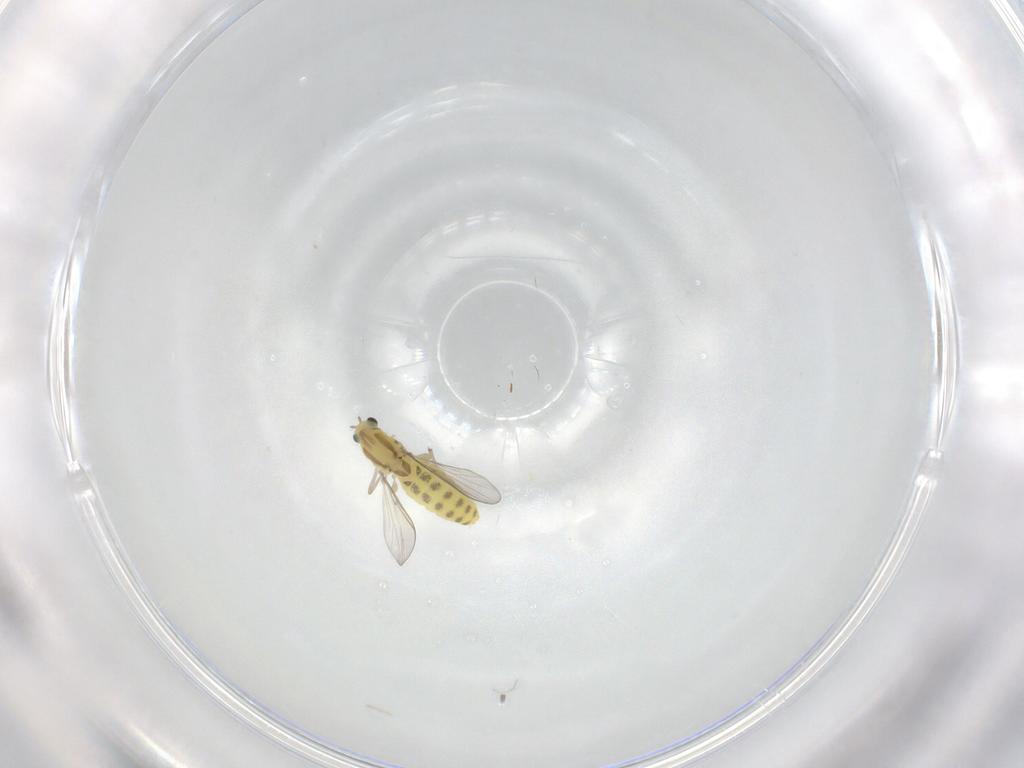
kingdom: Animalia
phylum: Arthropoda
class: Insecta
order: Diptera
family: Chironomidae
